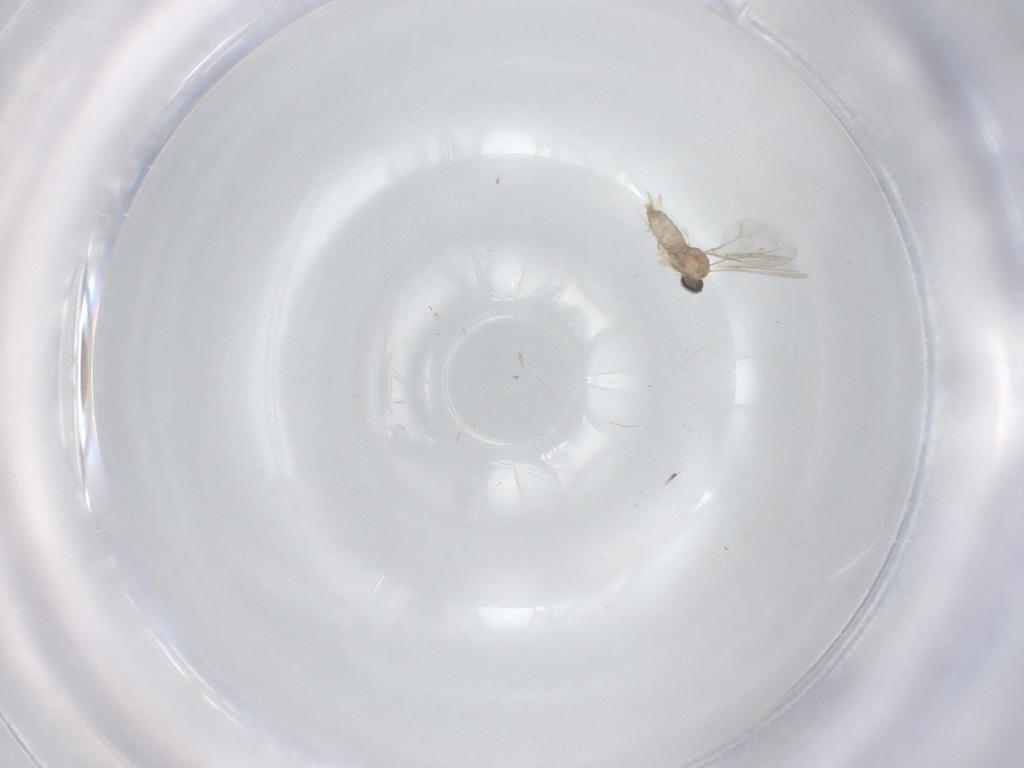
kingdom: Animalia
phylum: Arthropoda
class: Insecta
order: Diptera
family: Cecidomyiidae
